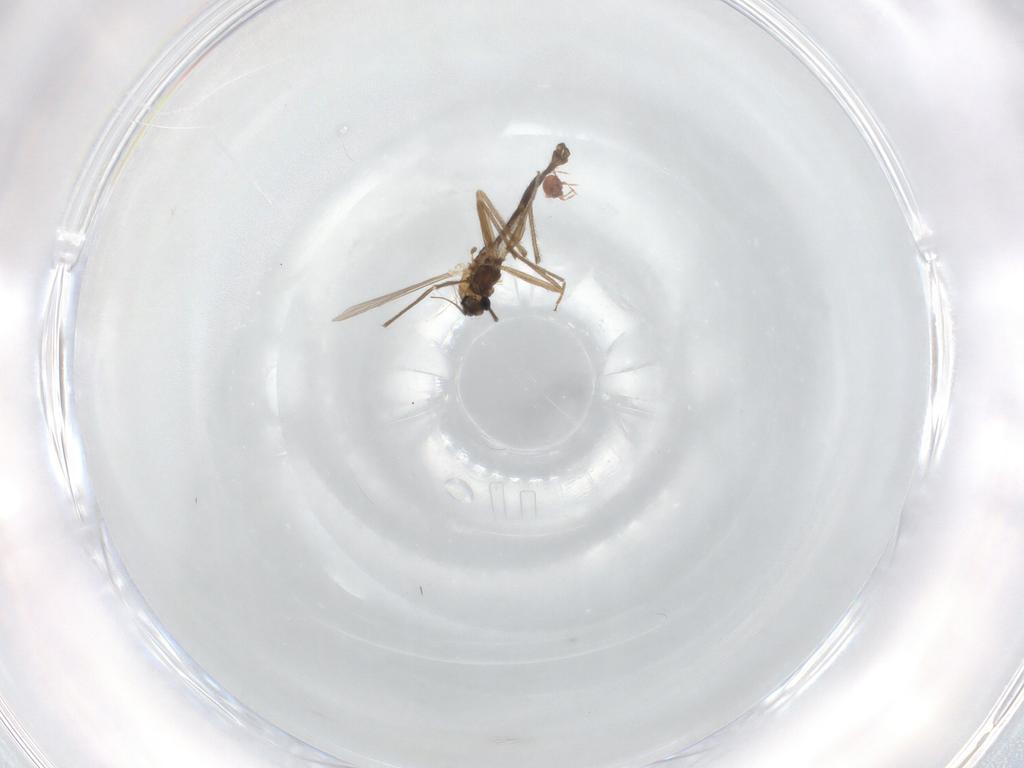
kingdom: Animalia
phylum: Arthropoda
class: Insecta
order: Diptera
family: Chironomidae
